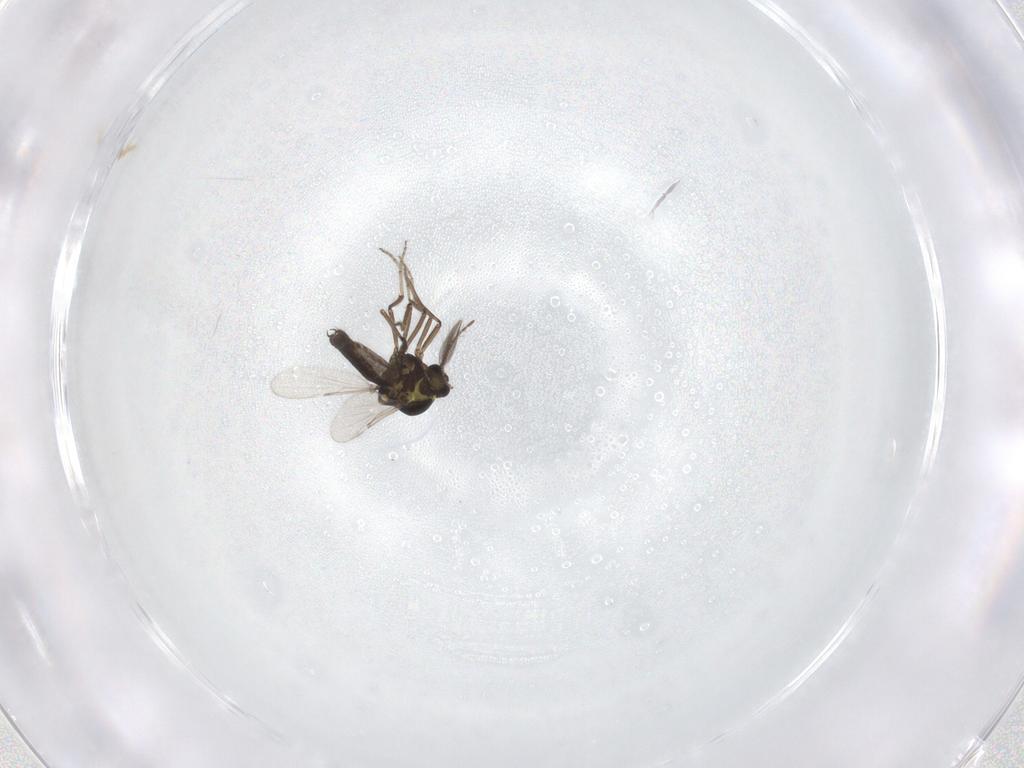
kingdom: Animalia
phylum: Arthropoda
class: Insecta
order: Diptera
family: Ceratopogonidae
